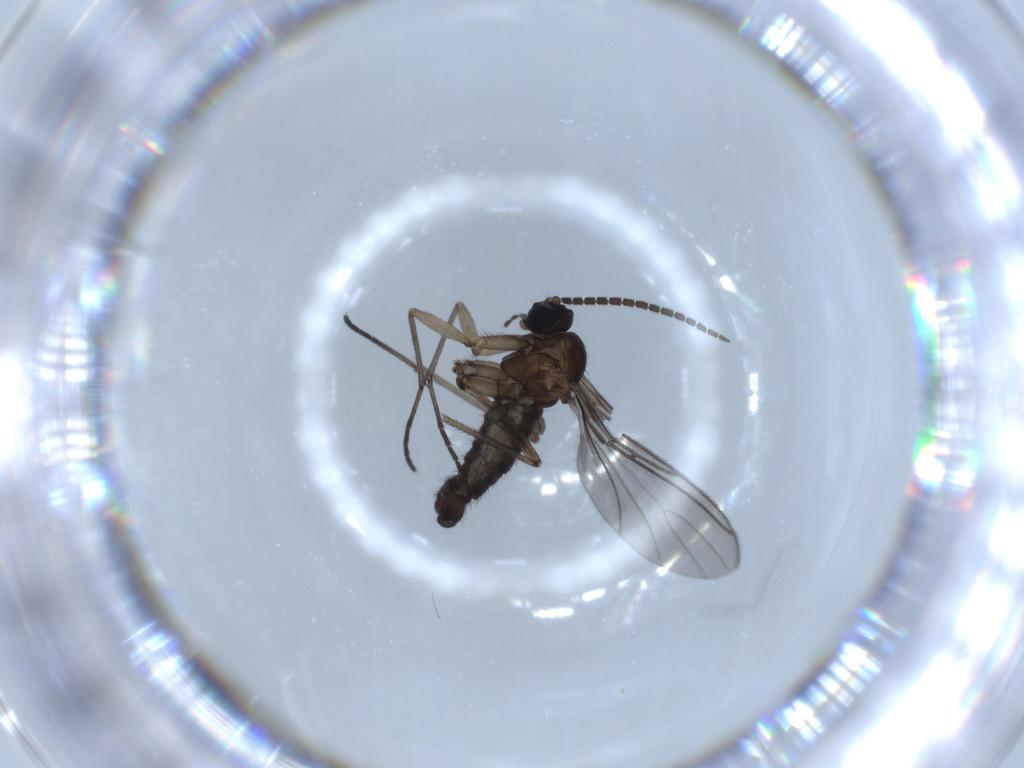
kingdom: Animalia
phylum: Arthropoda
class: Insecta
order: Diptera
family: Sciaridae
